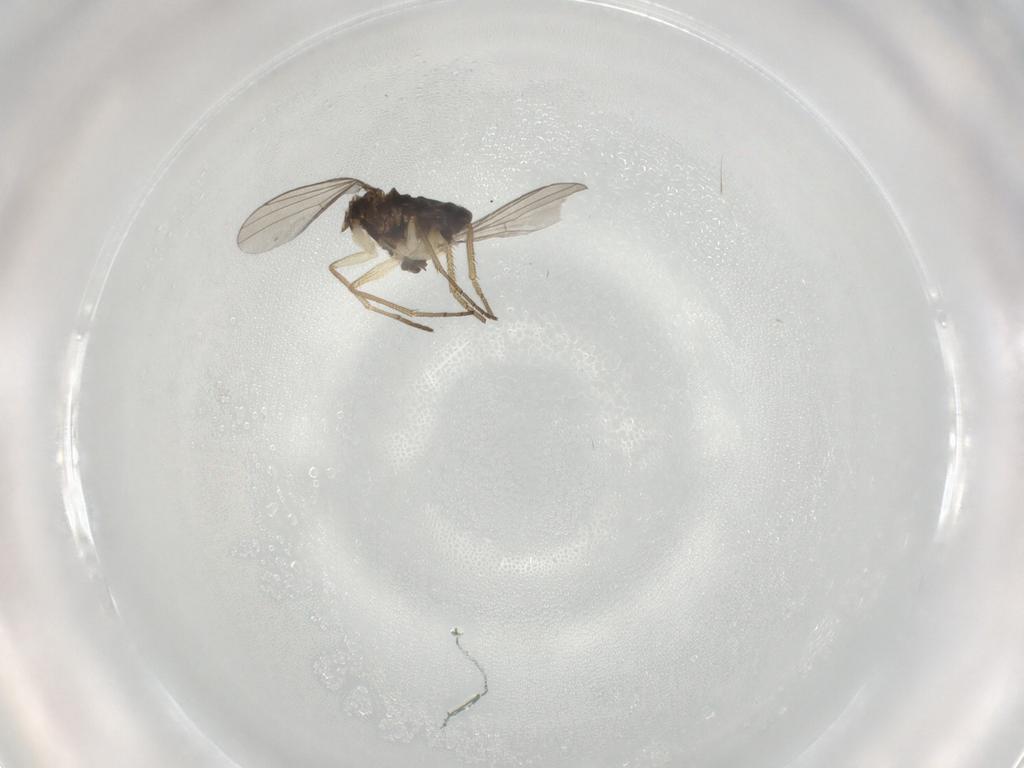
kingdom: Animalia
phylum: Arthropoda
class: Insecta
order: Diptera
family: Dolichopodidae
